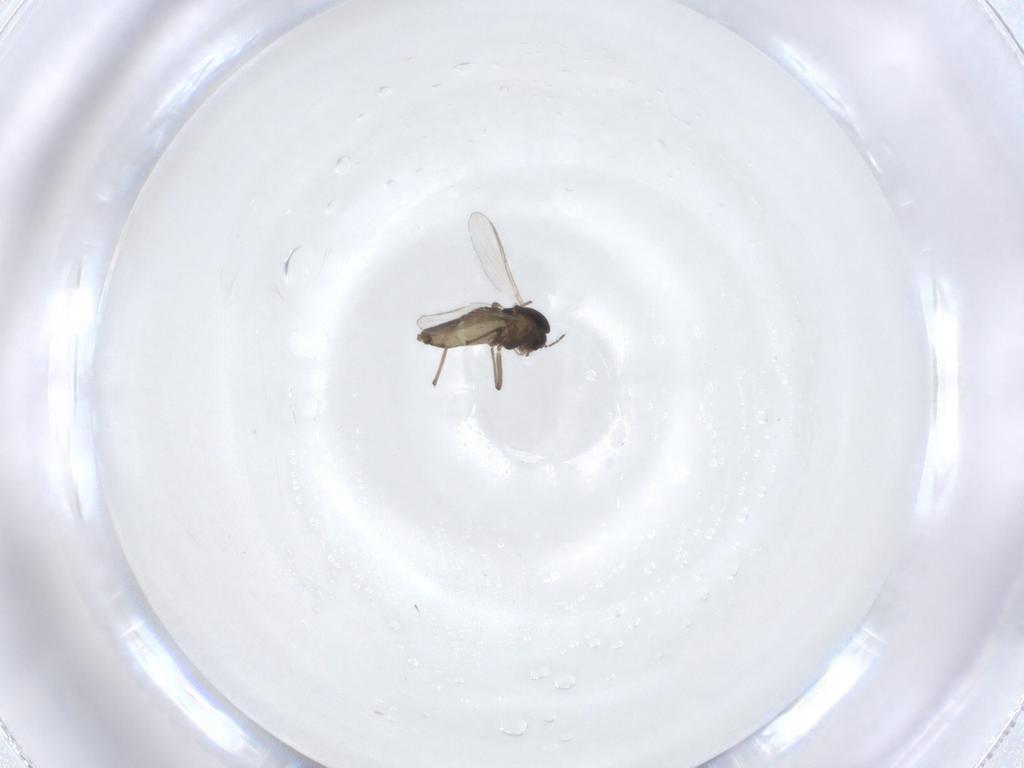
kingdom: Animalia
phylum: Arthropoda
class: Insecta
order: Diptera
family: Chironomidae
